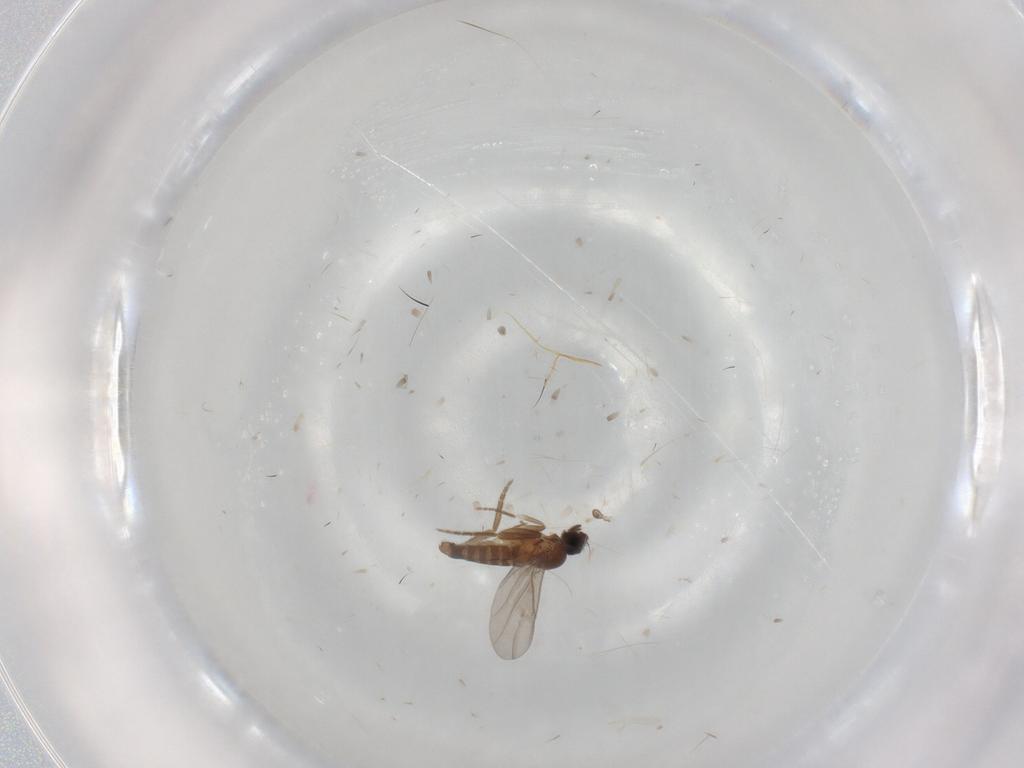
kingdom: Animalia
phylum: Arthropoda
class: Insecta
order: Diptera
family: Phoridae
